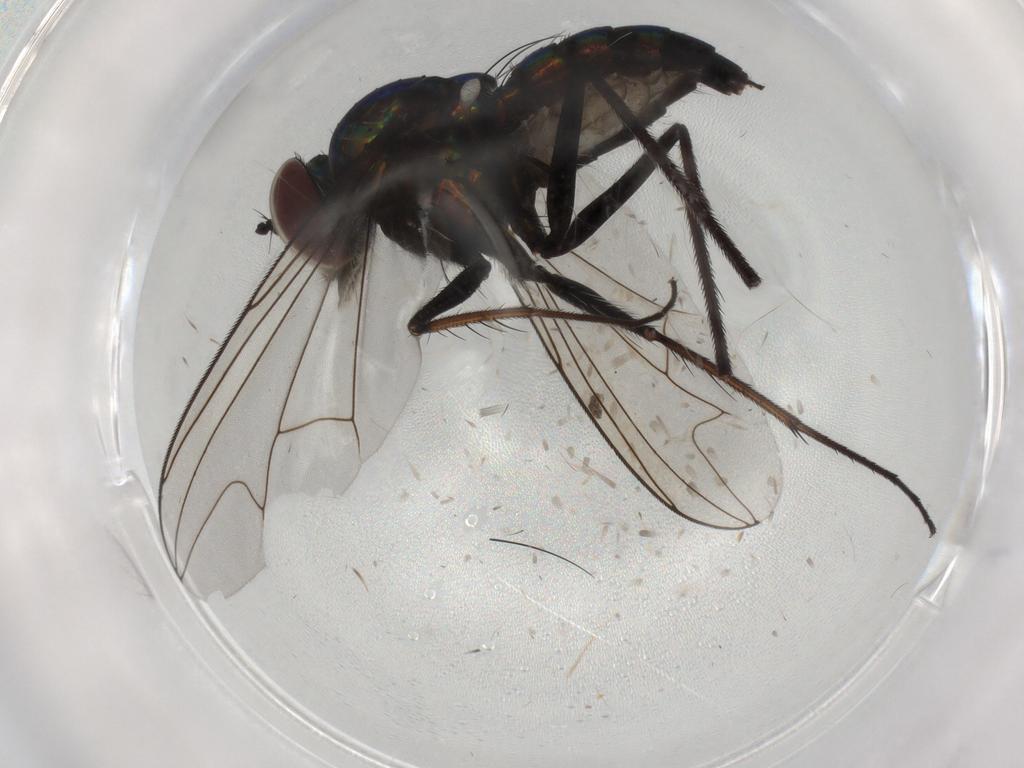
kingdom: Animalia
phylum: Arthropoda
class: Insecta
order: Diptera
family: Dolichopodidae
